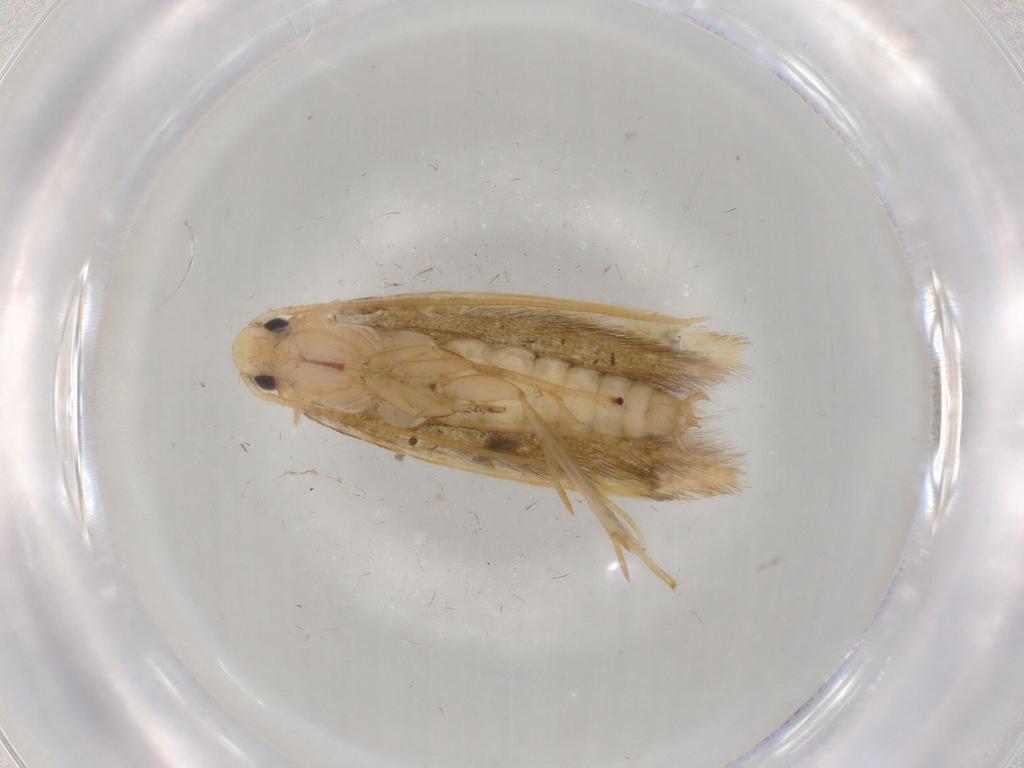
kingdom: Animalia
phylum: Arthropoda
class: Insecta
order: Lepidoptera
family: Tineidae
